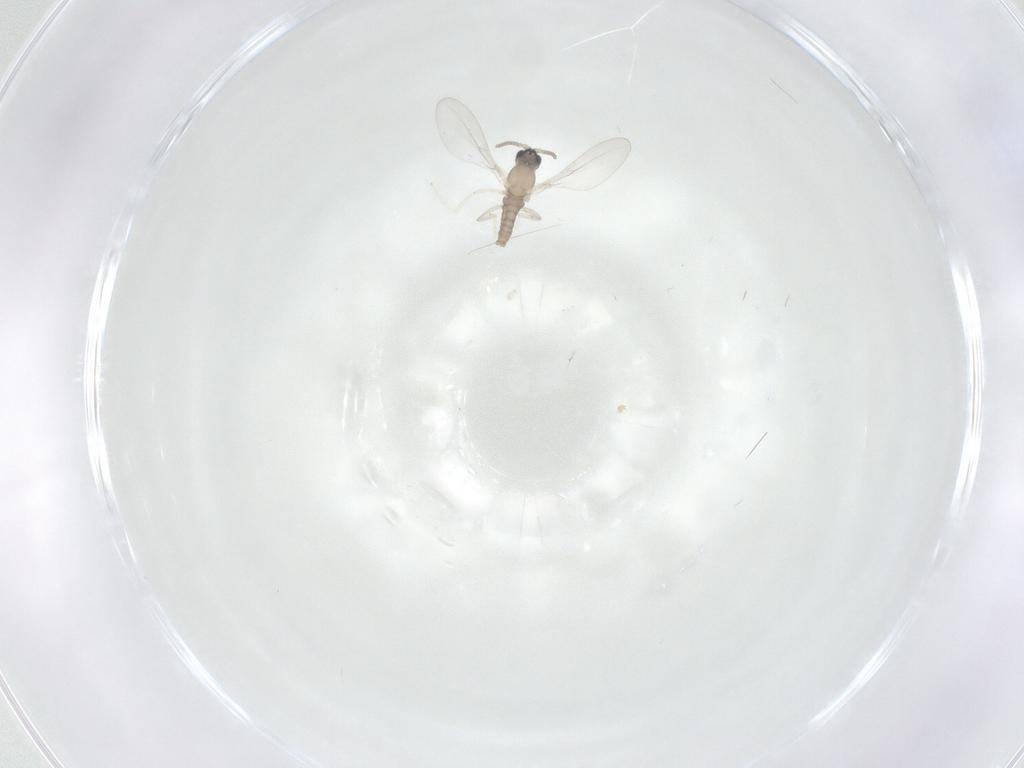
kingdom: Animalia
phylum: Arthropoda
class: Insecta
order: Diptera
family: Cecidomyiidae
